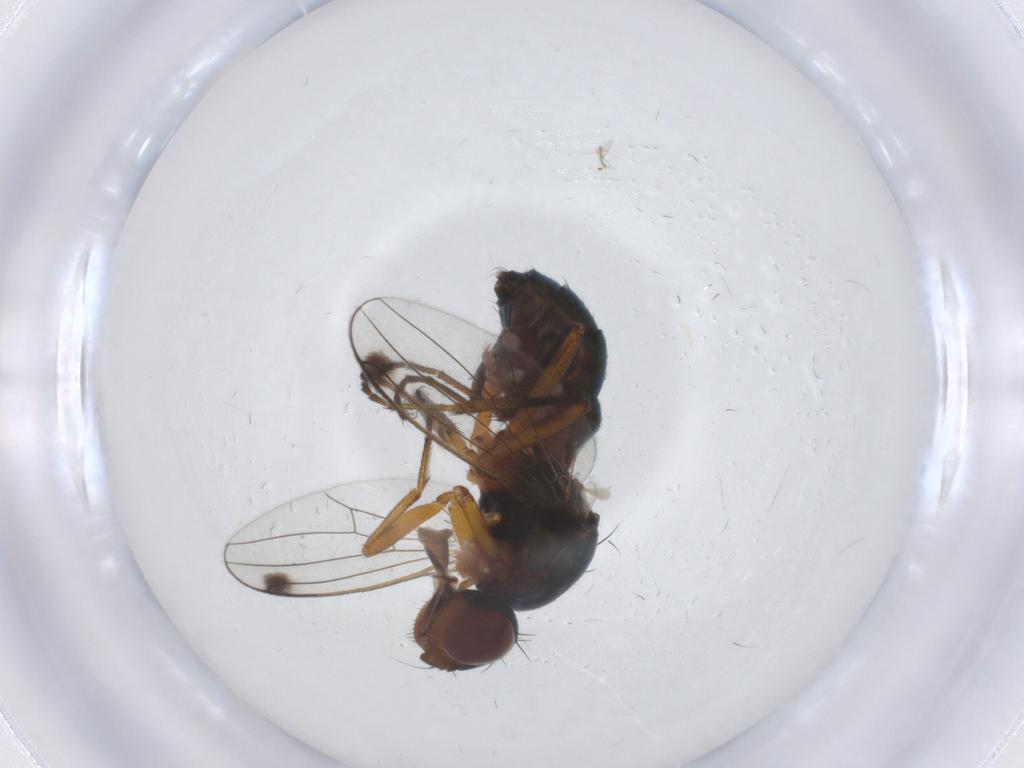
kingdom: Animalia
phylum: Arthropoda
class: Insecta
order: Diptera
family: Sepsidae
